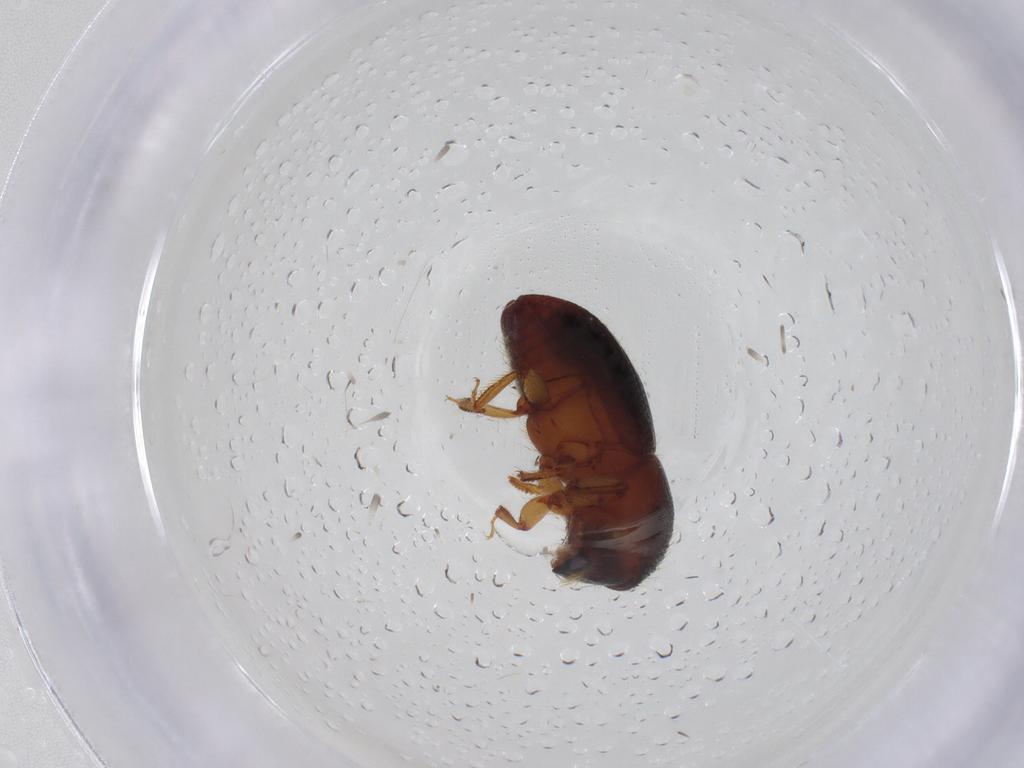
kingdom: Animalia
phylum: Arthropoda
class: Insecta
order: Coleoptera
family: Curculionidae
